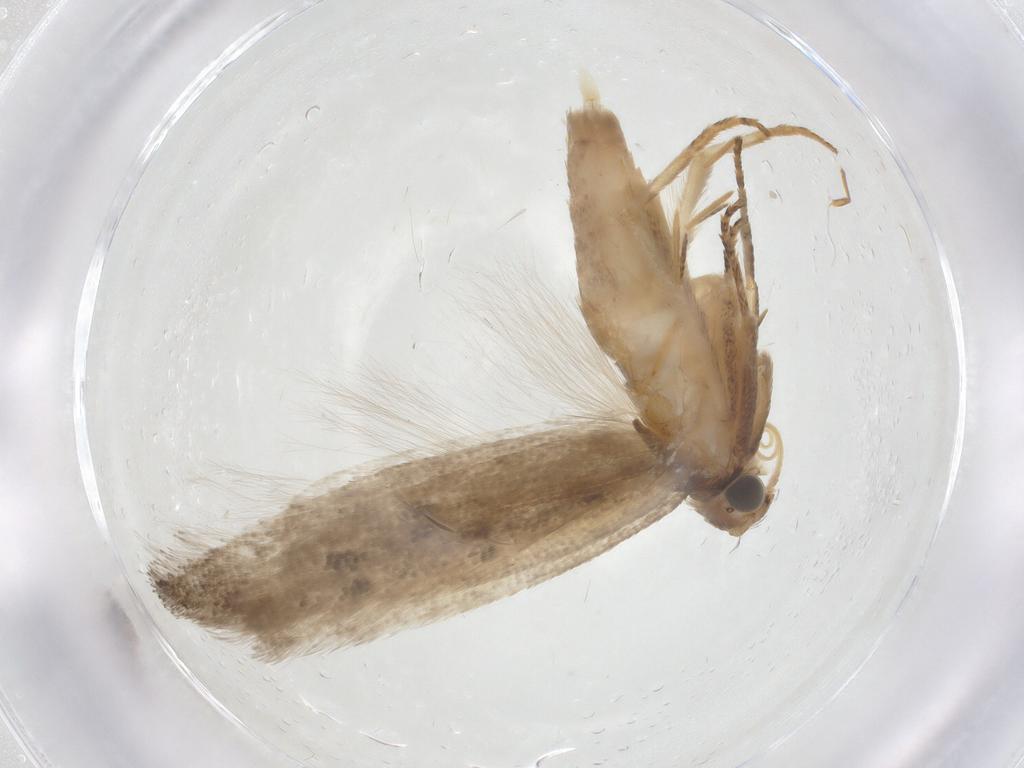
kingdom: Animalia
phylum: Arthropoda
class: Insecta
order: Lepidoptera
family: Gelechiidae
